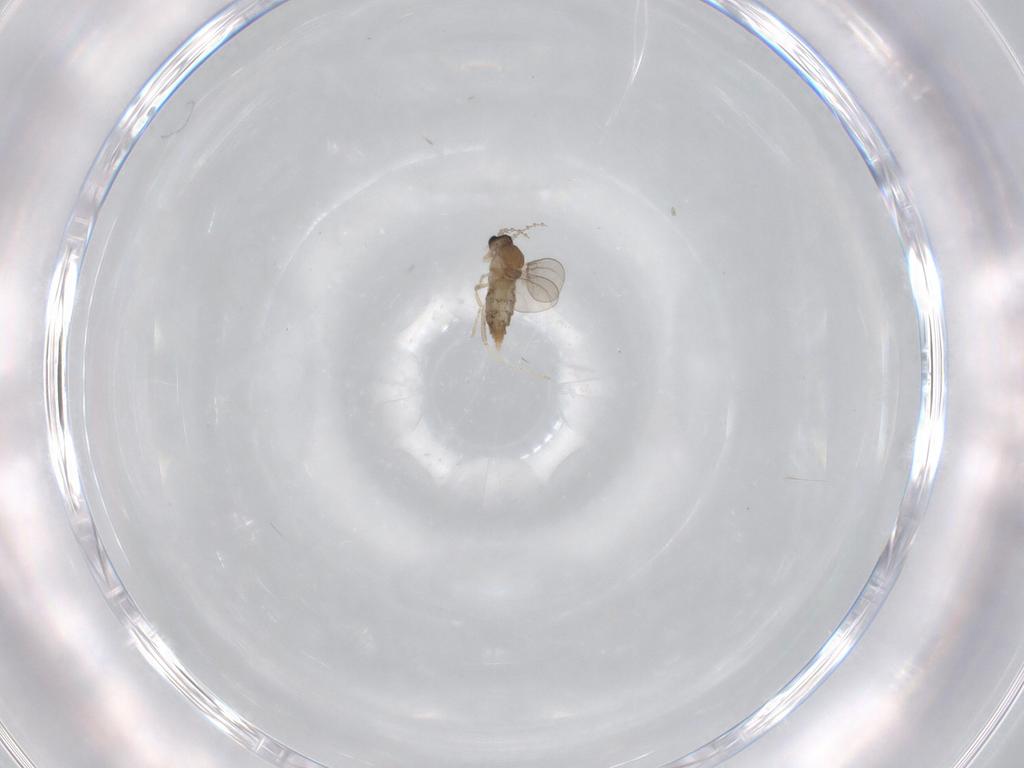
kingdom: Animalia
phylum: Arthropoda
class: Insecta
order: Diptera
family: Cecidomyiidae
